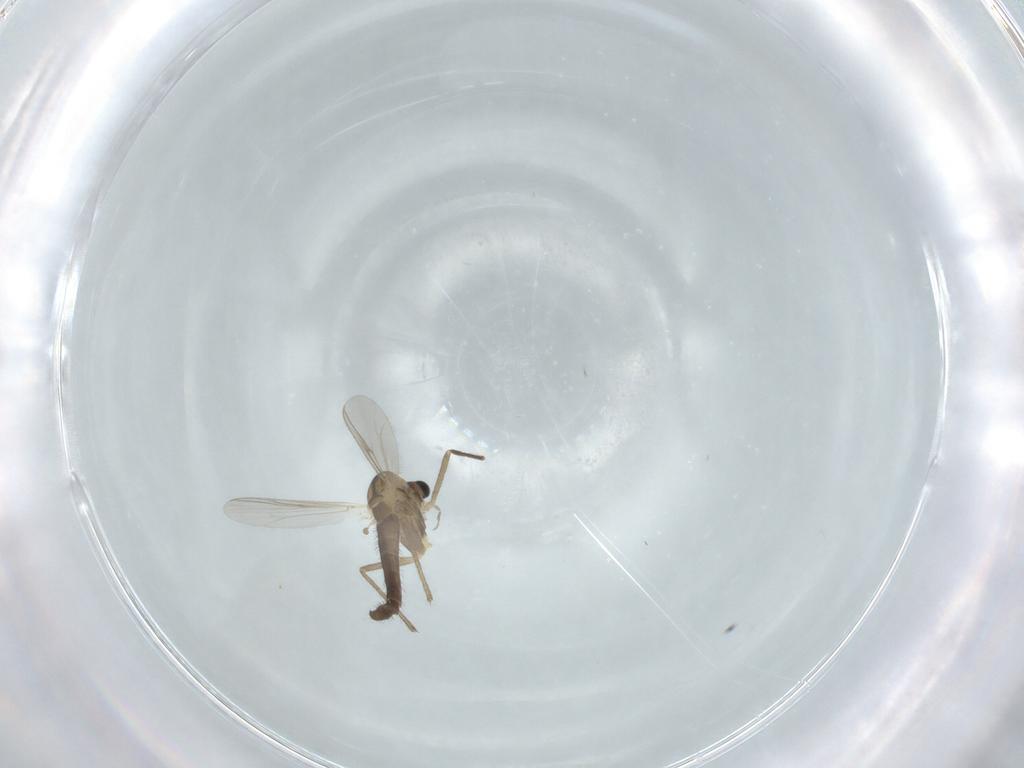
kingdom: Animalia
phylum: Arthropoda
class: Insecta
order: Diptera
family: Chironomidae
